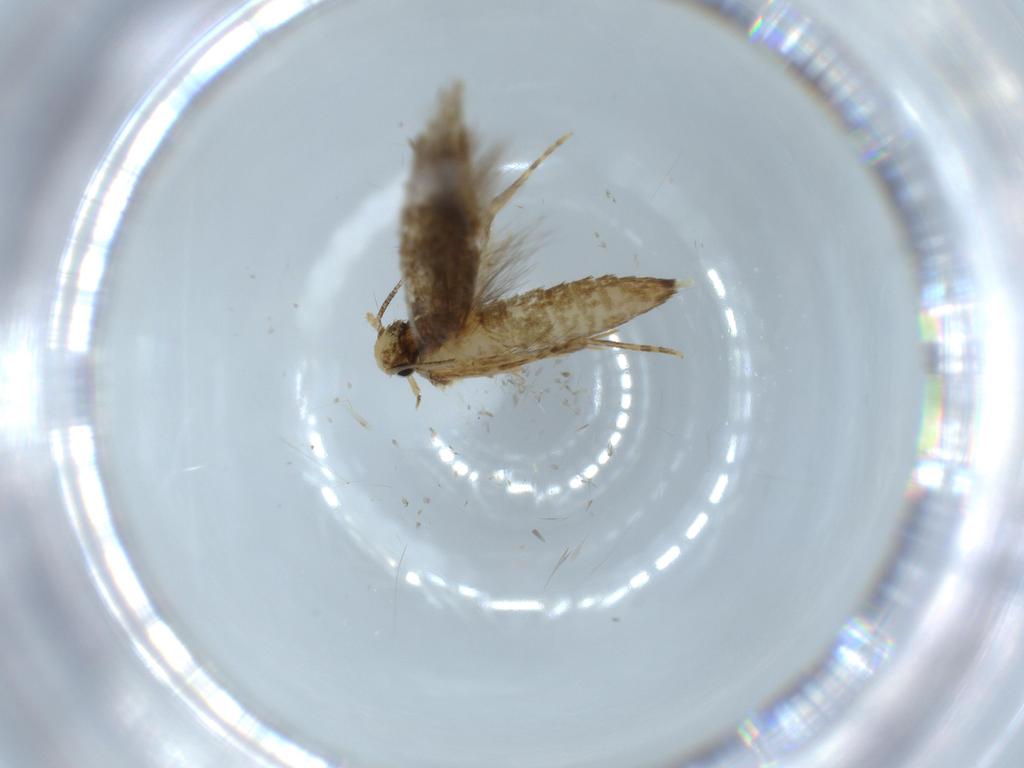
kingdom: Animalia
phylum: Arthropoda
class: Insecta
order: Lepidoptera
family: Tineidae
